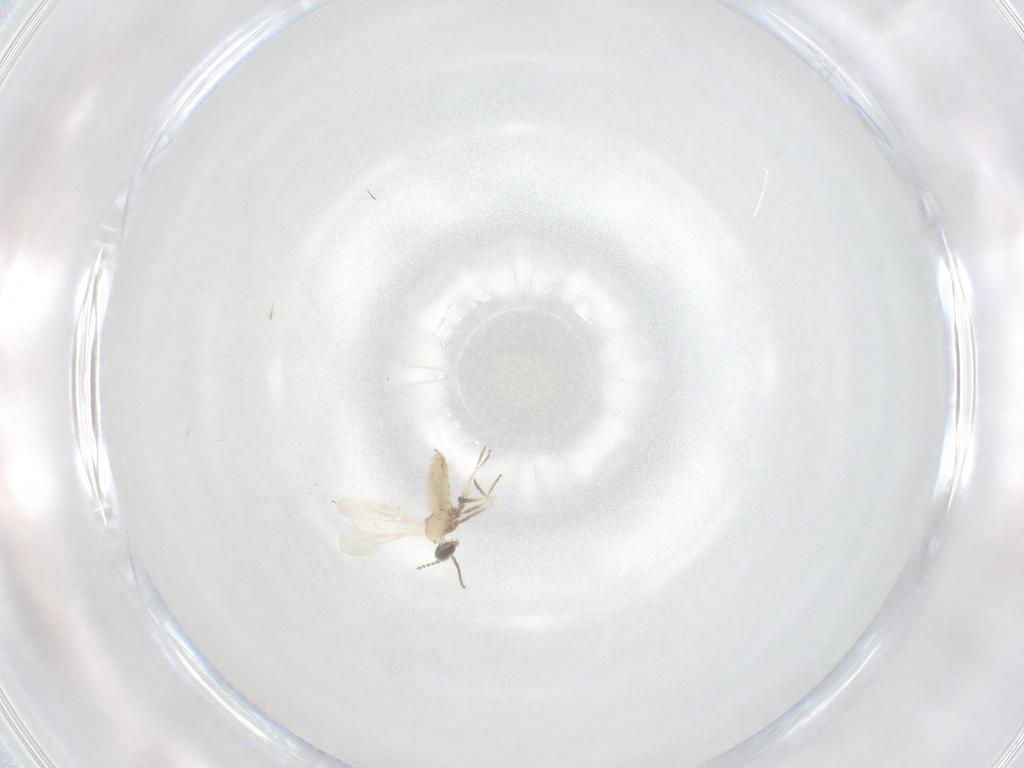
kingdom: Animalia
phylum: Arthropoda
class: Insecta
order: Diptera
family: Cecidomyiidae
